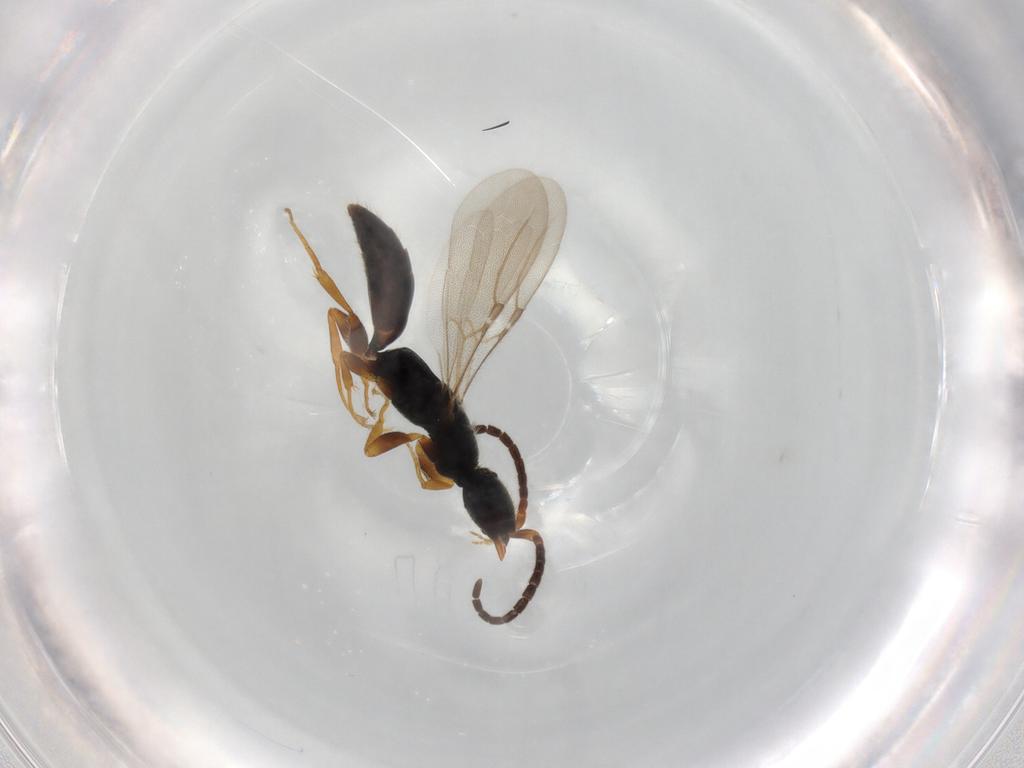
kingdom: Animalia
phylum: Arthropoda
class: Insecta
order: Hymenoptera
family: Bethylidae
